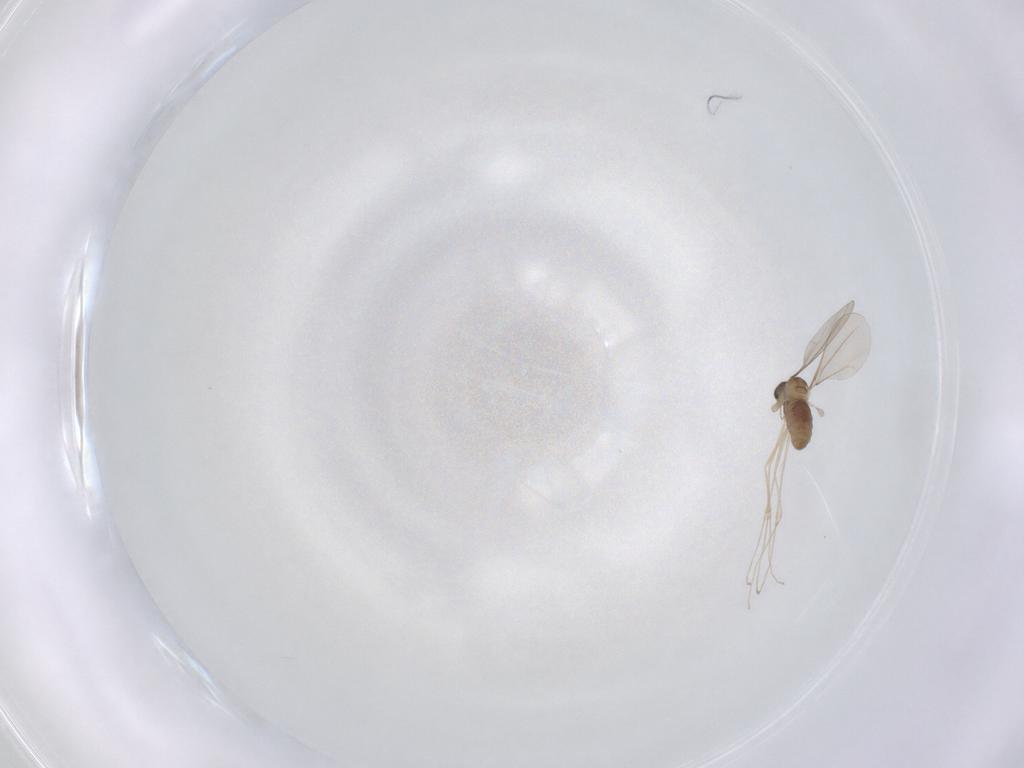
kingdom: Animalia
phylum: Arthropoda
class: Insecta
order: Diptera
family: Cecidomyiidae
